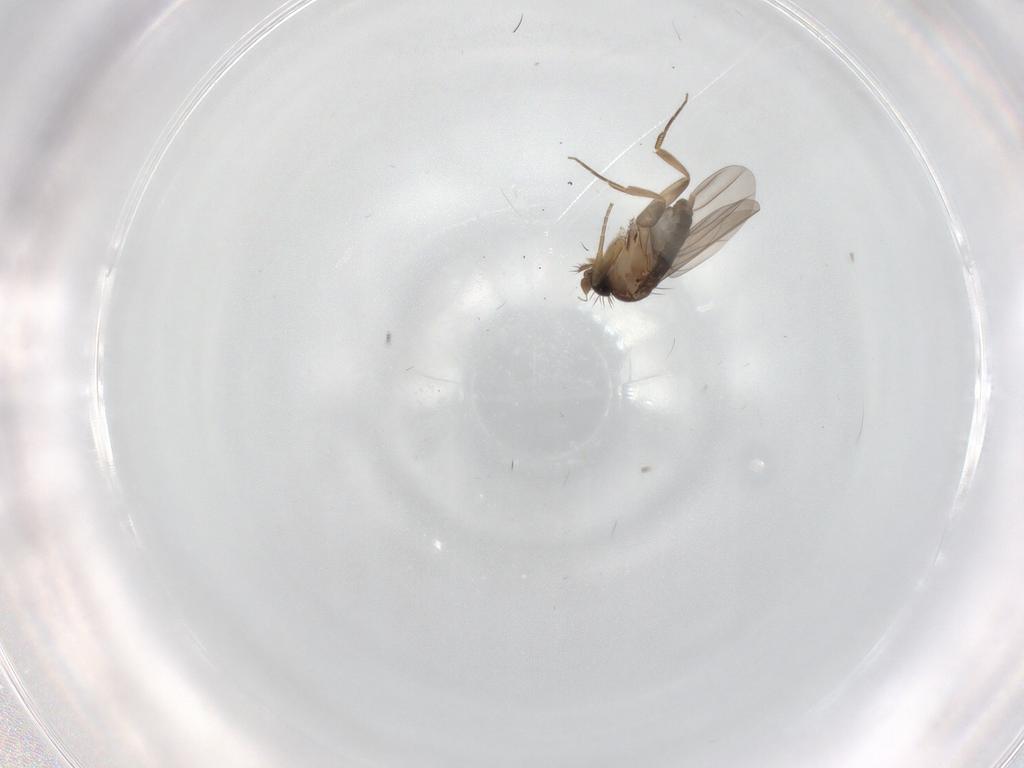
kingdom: Animalia
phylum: Arthropoda
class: Insecta
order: Diptera
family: Phoridae
